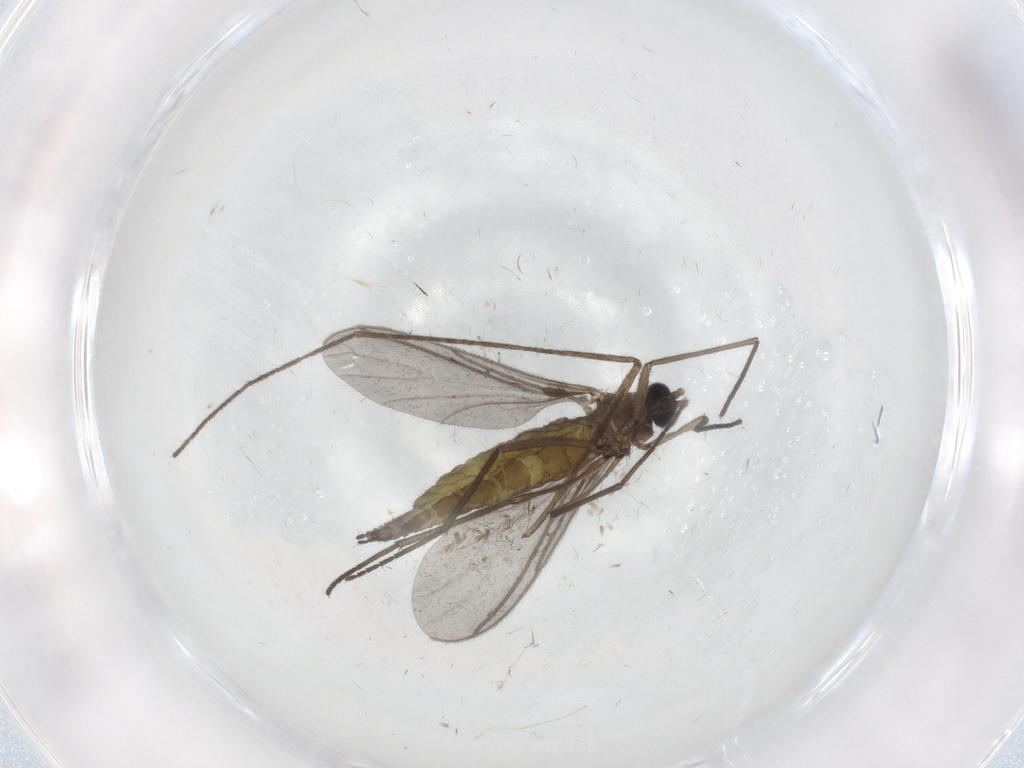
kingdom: Animalia
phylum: Arthropoda
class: Insecta
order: Diptera
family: Sciaridae
